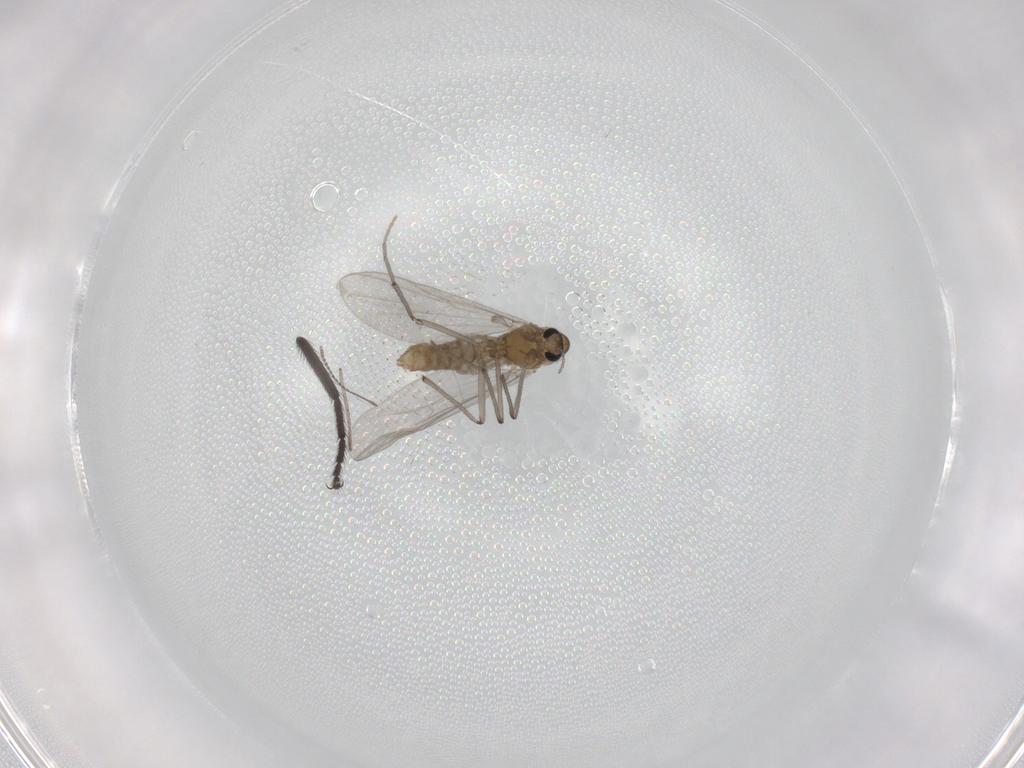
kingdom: Animalia
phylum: Arthropoda
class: Insecta
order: Diptera
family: Chironomidae
